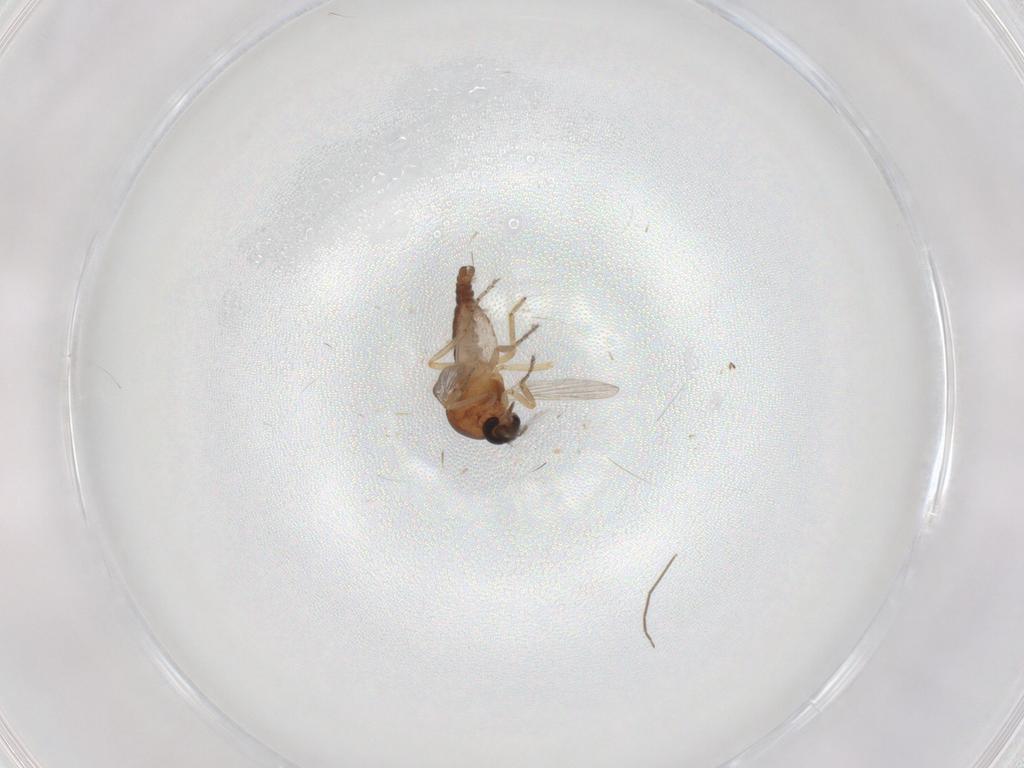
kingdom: Animalia
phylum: Arthropoda
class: Insecta
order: Diptera
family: Ceratopogonidae
